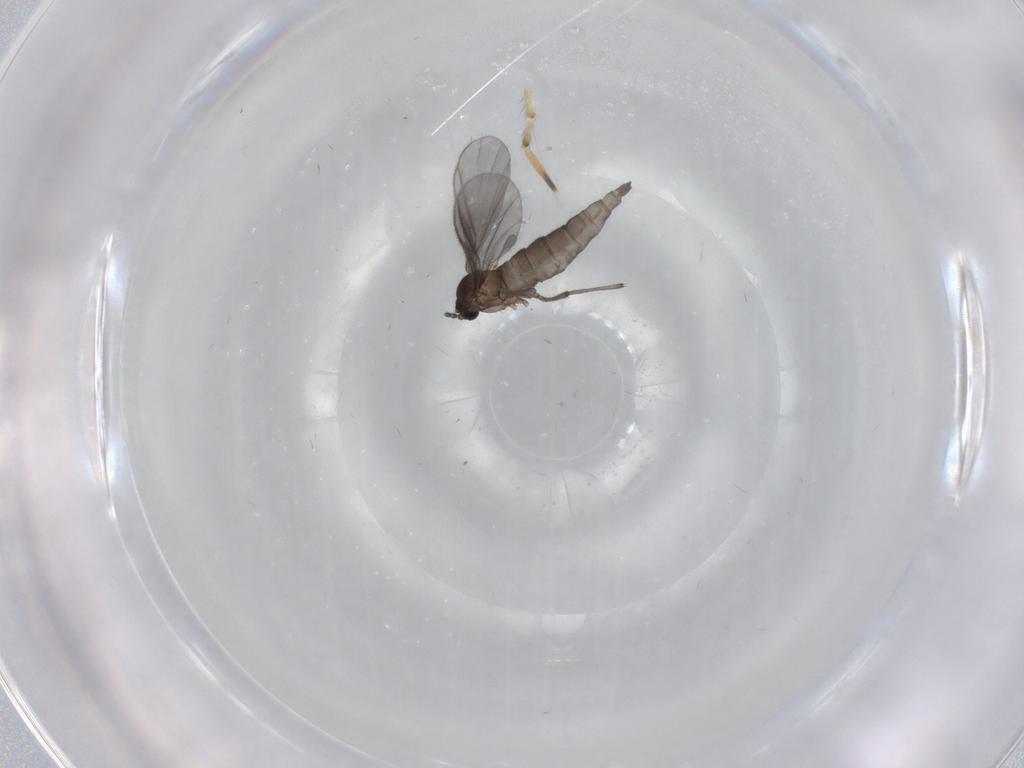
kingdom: Animalia
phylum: Arthropoda
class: Insecta
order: Diptera
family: Sciaridae
